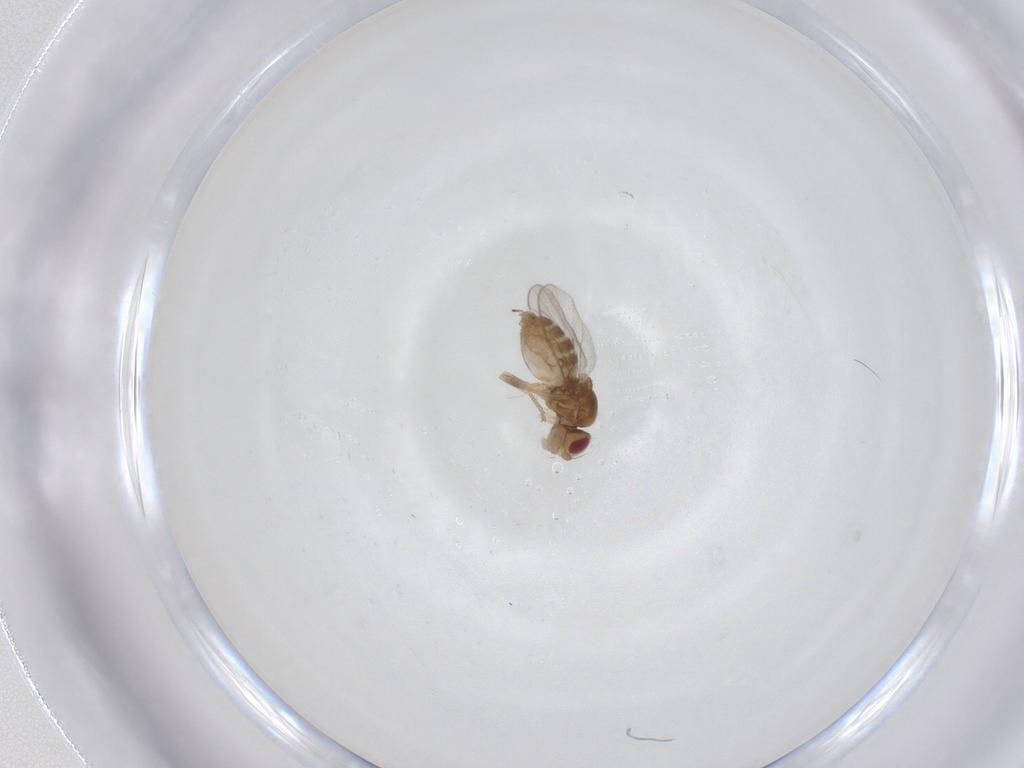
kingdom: Animalia
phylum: Arthropoda
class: Insecta
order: Diptera
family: Chloropidae
